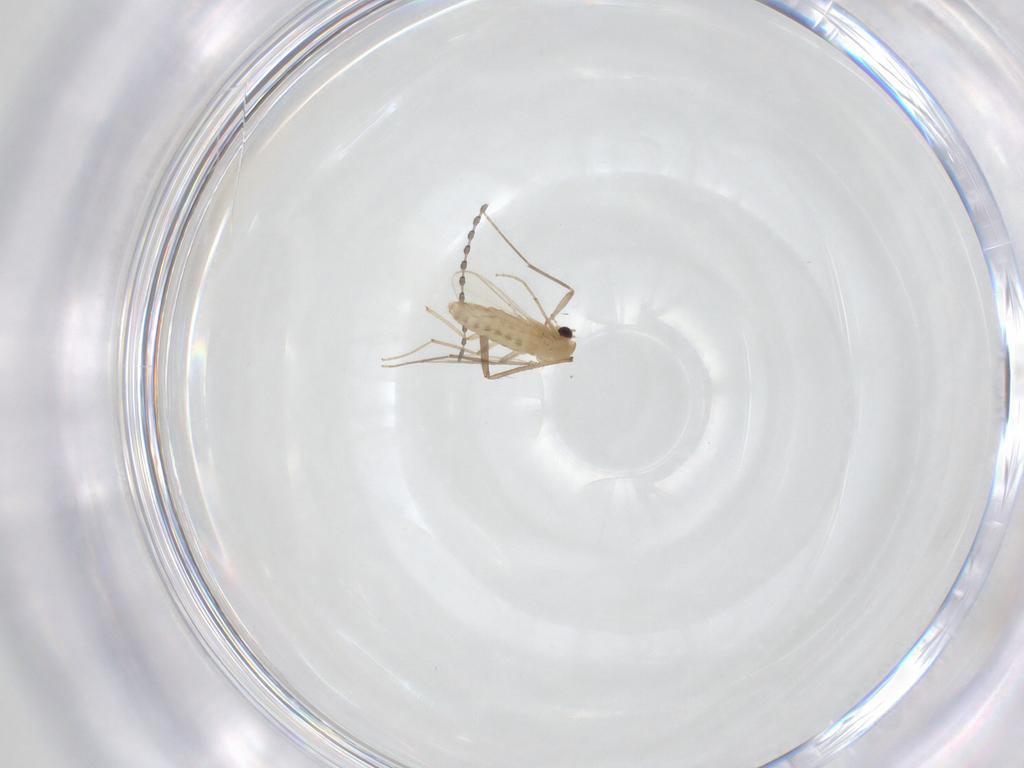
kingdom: Animalia
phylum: Arthropoda
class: Insecta
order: Diptera
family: Chironomidae
